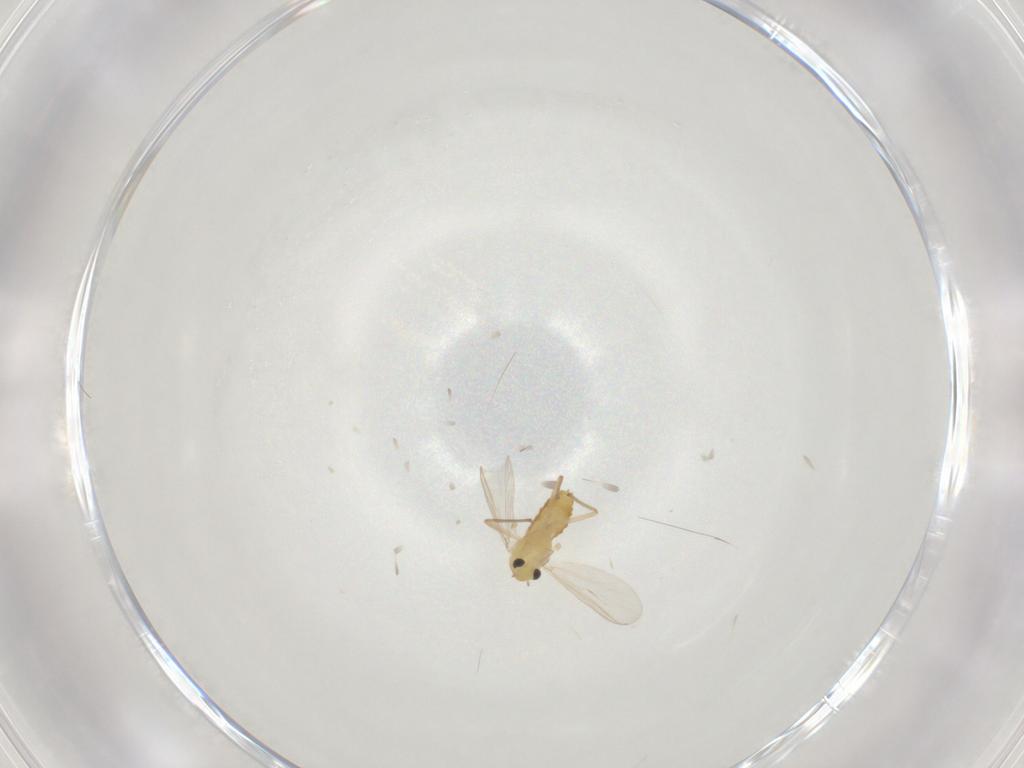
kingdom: Animalia
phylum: Arthropoda
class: Insecta
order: Diptera
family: Chironomidae
